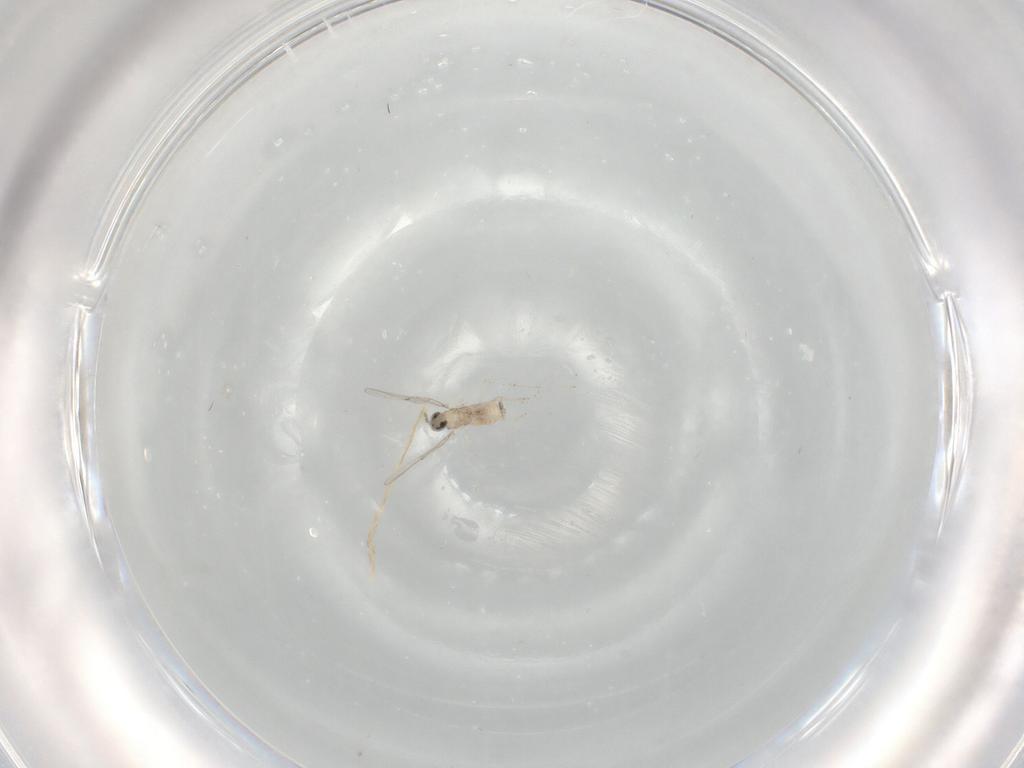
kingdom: Animalia
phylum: Arthropoda
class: Insecta
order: Diptera
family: Cecidomyiidae
